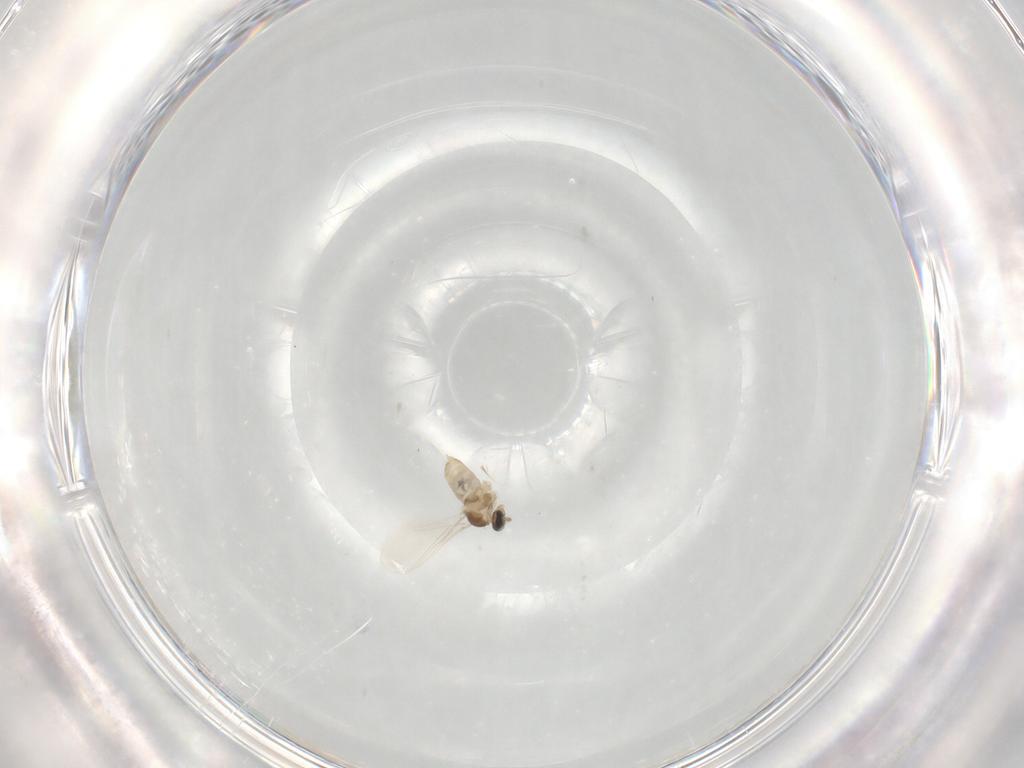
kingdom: Animalia
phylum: Arthropoda
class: Insecta
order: Diptera
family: Cecidomyiidae
